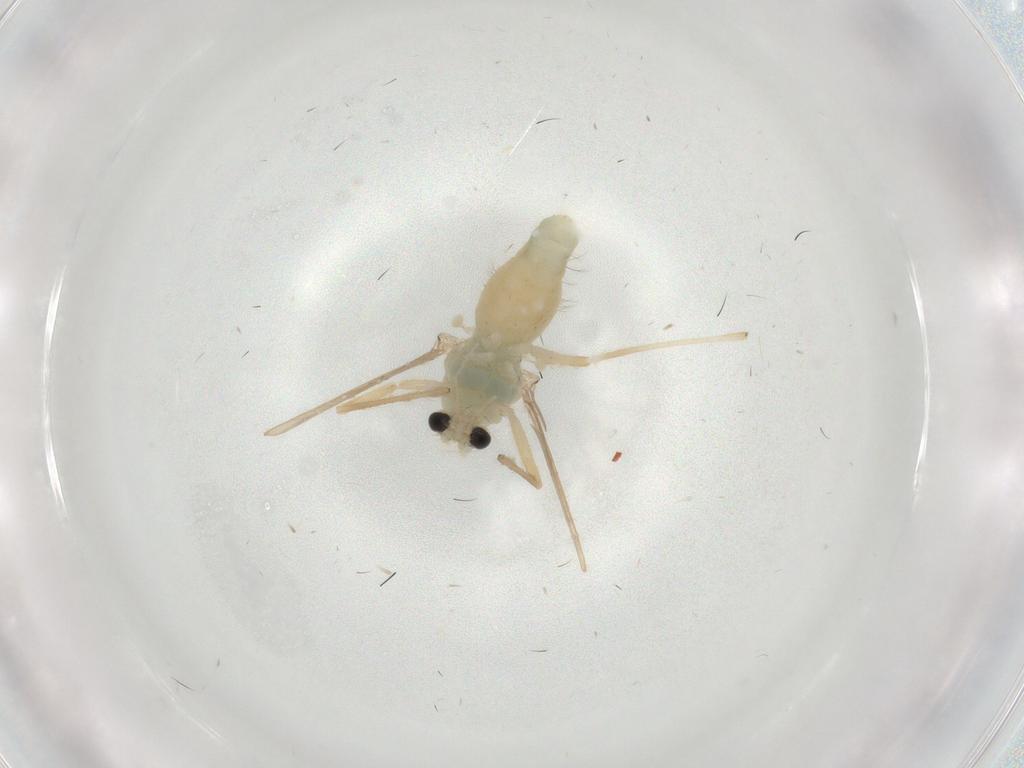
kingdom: Animalia
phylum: Arthropoda
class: Insecta
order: Diptera
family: Chironomidae
